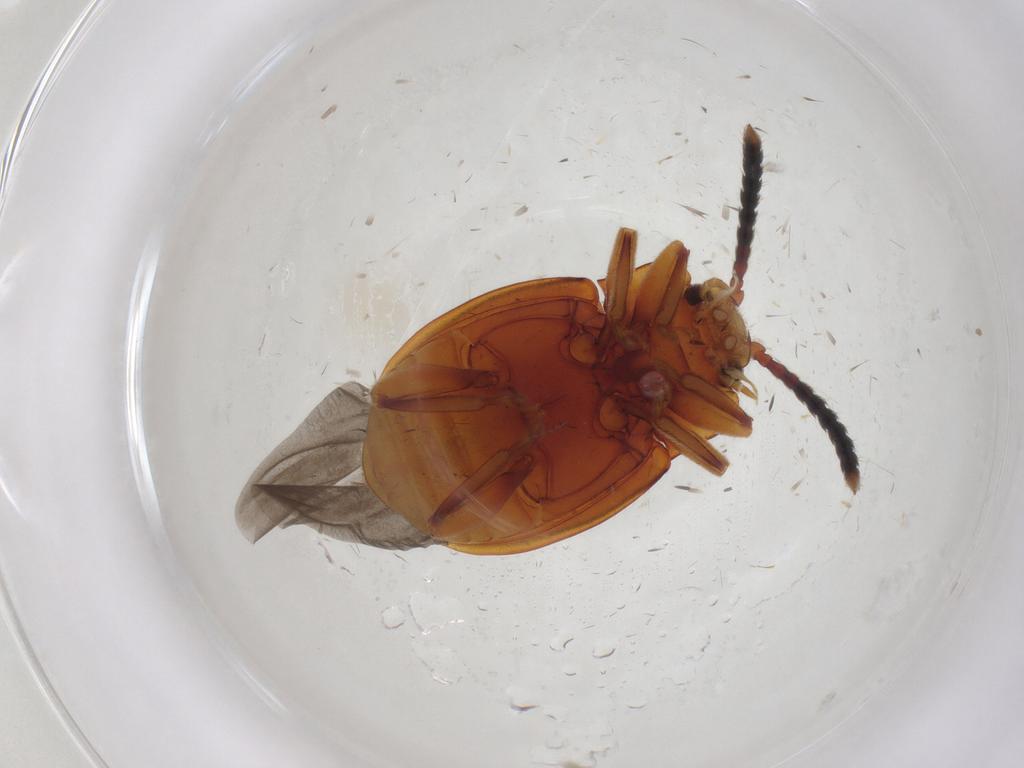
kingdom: Animalia
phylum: Arthropoda
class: Insecta
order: Coleoptera
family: Endomychidae
